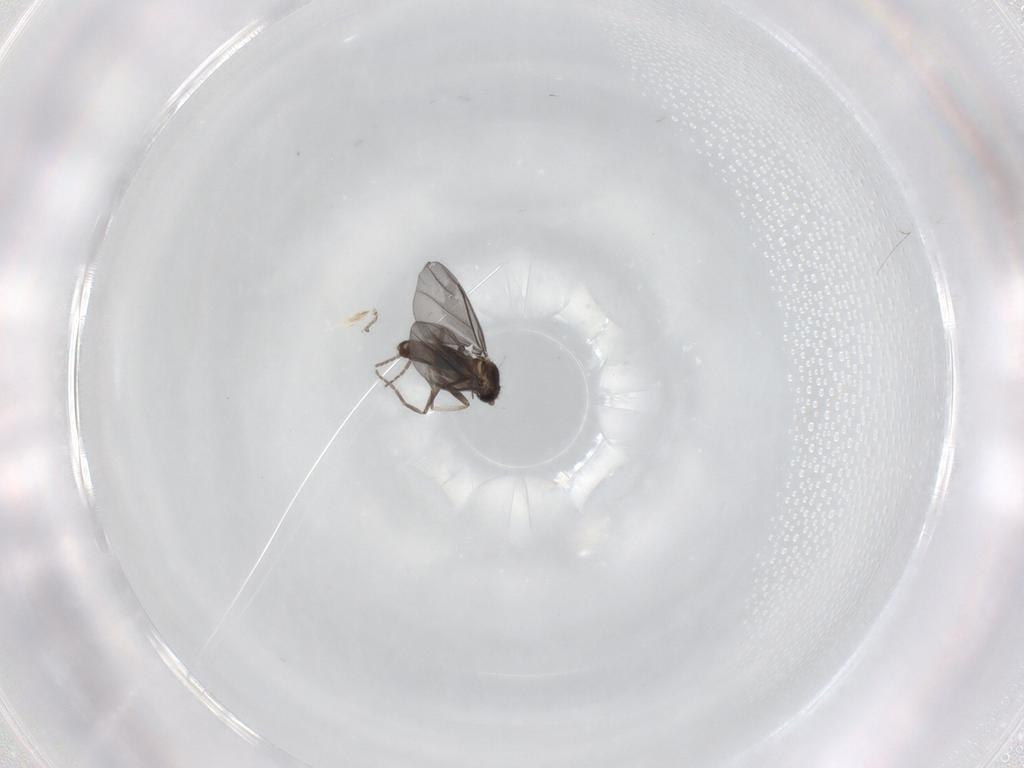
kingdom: Animalia
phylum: Arthropoda
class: Insecta
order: Diptera
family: Phoridae
